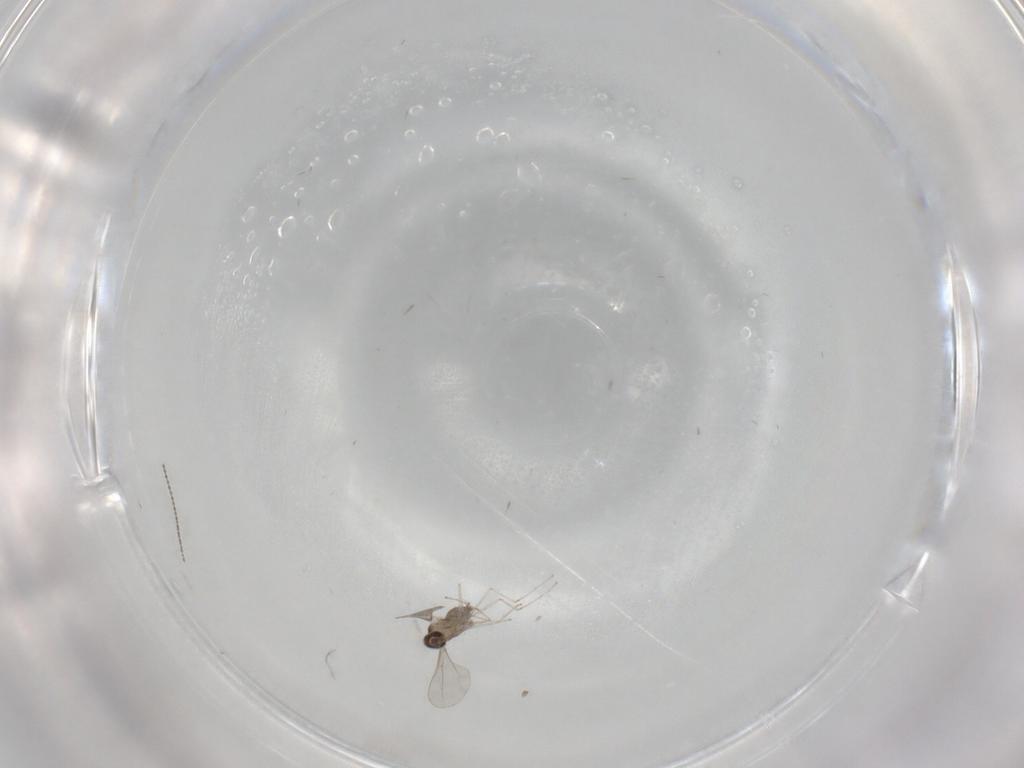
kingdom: Animalia
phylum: Arthropoda
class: Insecta
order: Diptera
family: Cecidomyiidae
